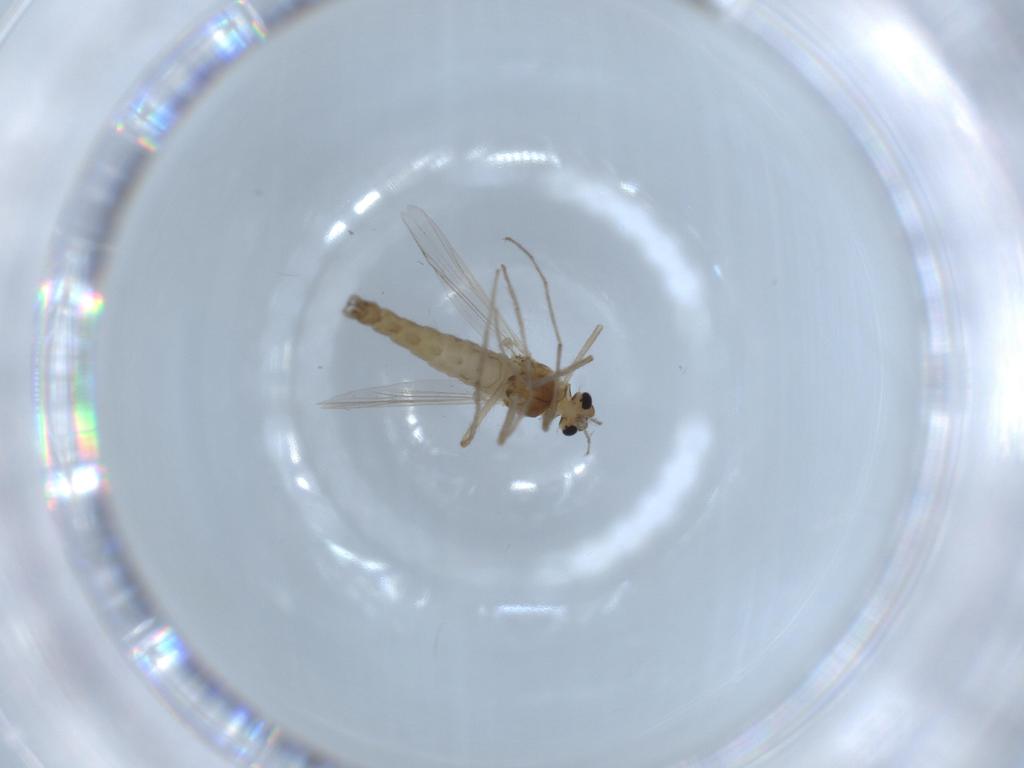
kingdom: Animalia
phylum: Arthropoda
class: Insecta
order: Diptera
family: Chironomidae
